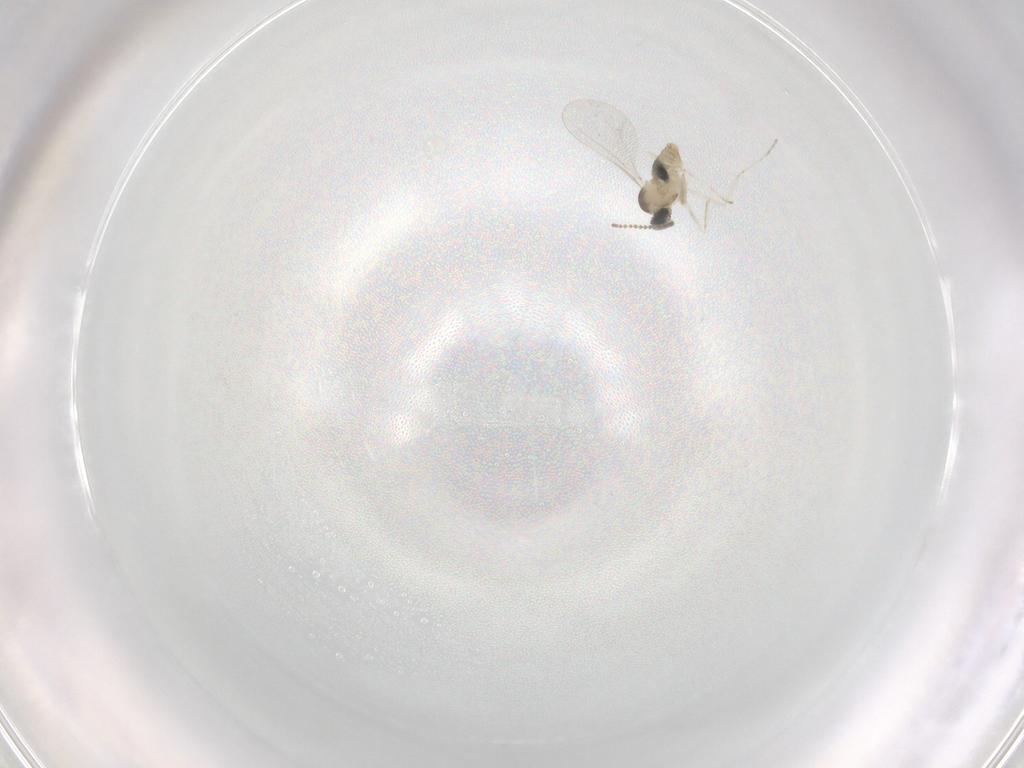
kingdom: Animalia
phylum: Arthropoda
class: Insecta
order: Diptera
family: Cecidomyiidae
